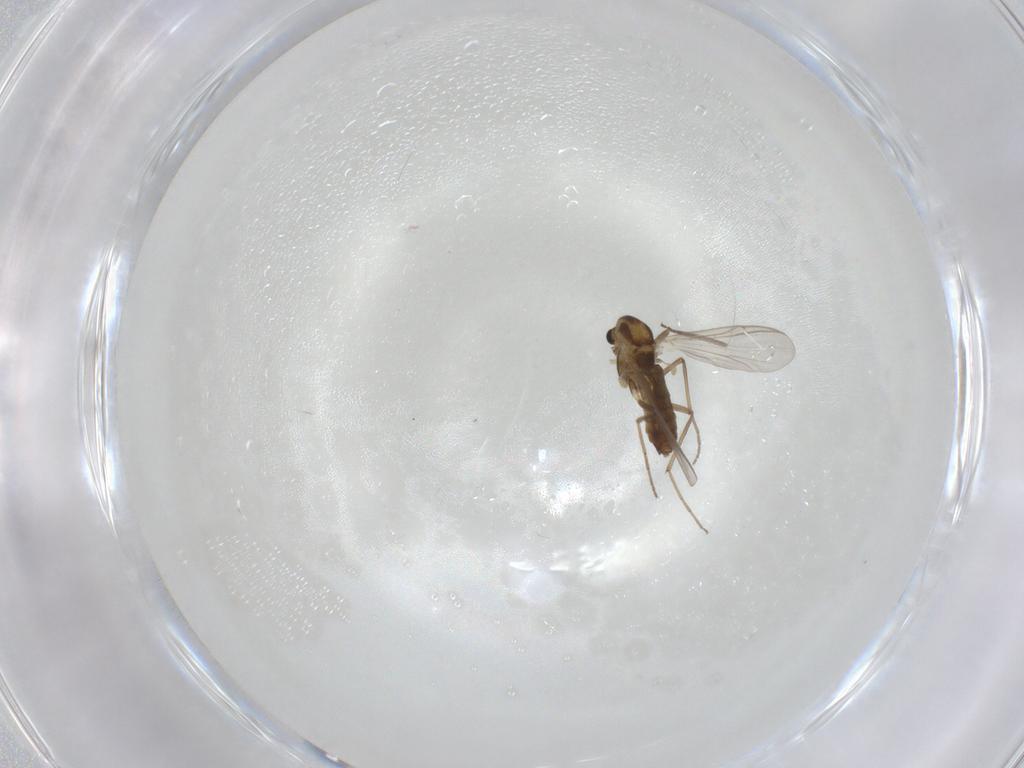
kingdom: Animalia
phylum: Arthropoda
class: Insecta
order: Diptera
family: Chironomidae
